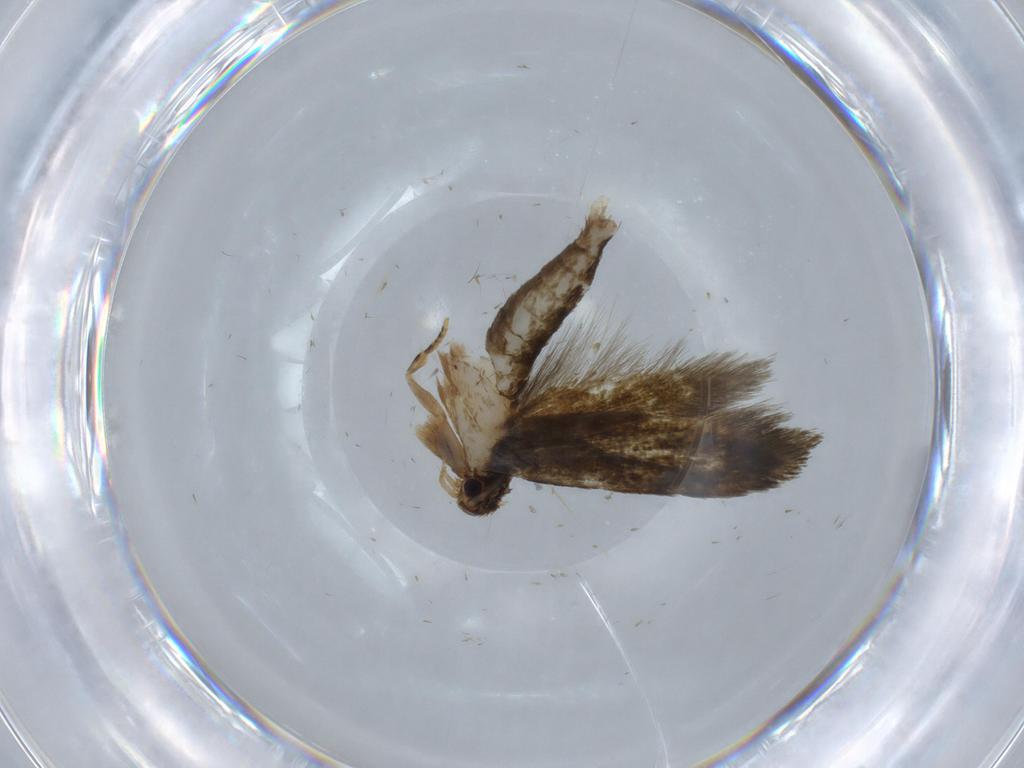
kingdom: Animalia
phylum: Arthropoda
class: Insecta
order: Lepidoptera
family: Tineidae
